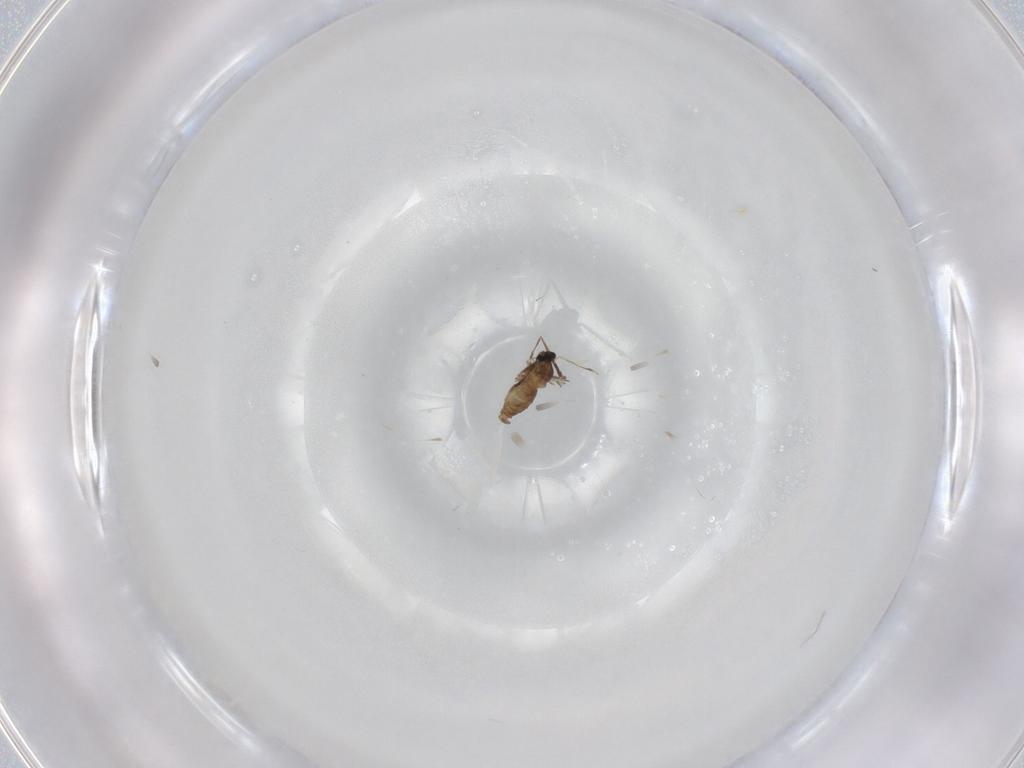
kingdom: Animalia
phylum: Arthropoda
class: Insecta
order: Diptera
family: Cecidomyiidae
